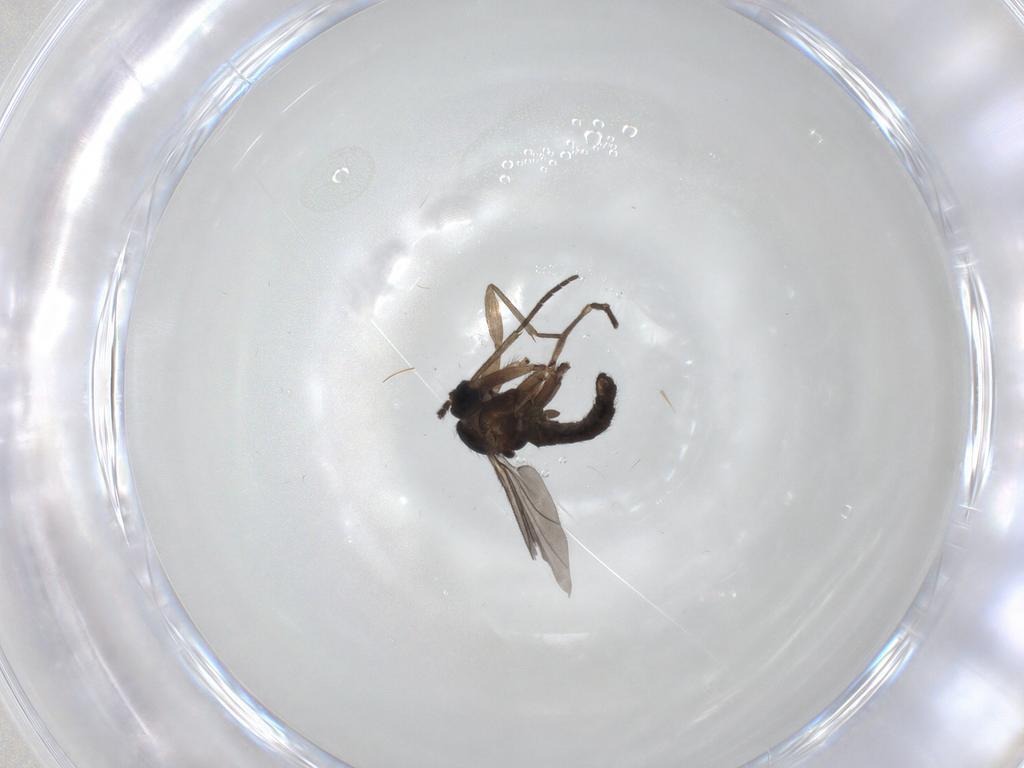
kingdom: Animalia
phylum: Arthropoda
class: Insecta
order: Diptera
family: Sciaridae
